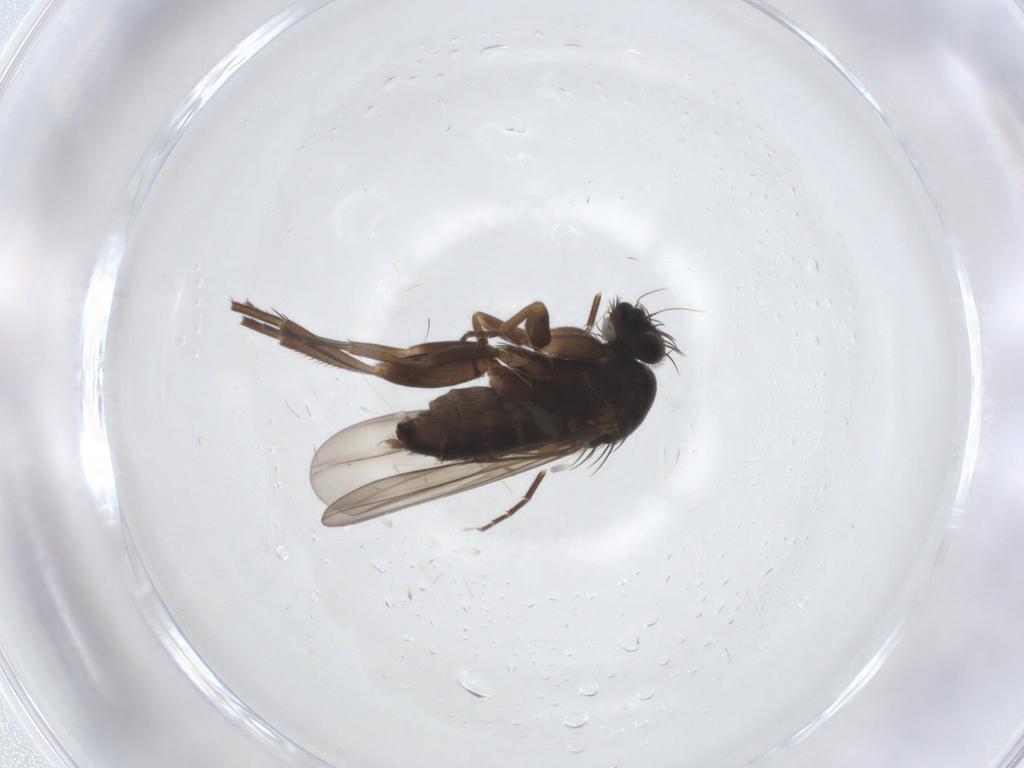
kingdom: Animalia
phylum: Arthropoda
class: Insecta
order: Diptera
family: Phoridae
